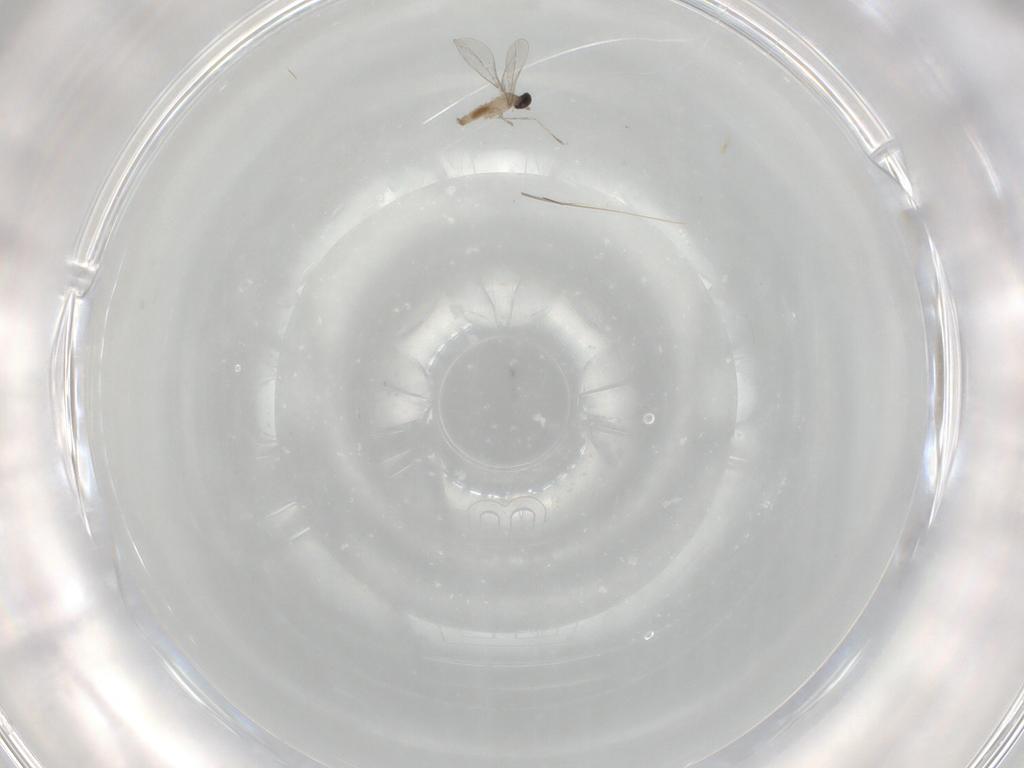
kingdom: Animalia
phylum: Arthropoda
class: Insecta
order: Diptera
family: Cecidomyiidae
